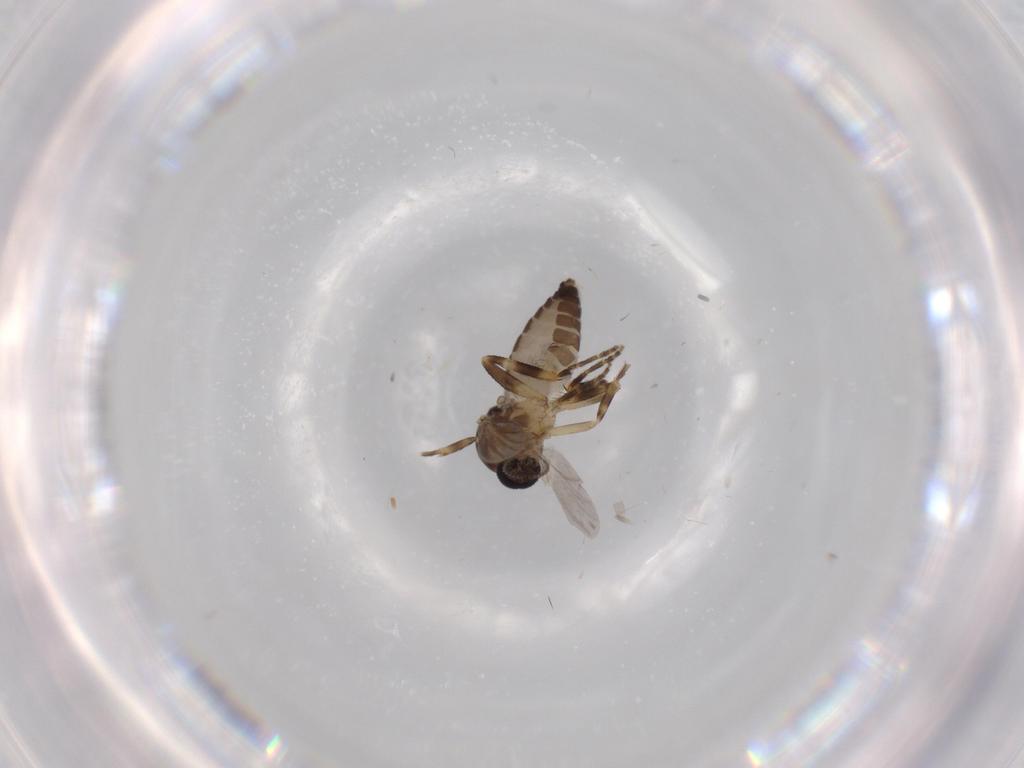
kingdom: Animalia
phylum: Arthropoda
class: Insecta
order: Diptera
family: Ceratopogonidae
